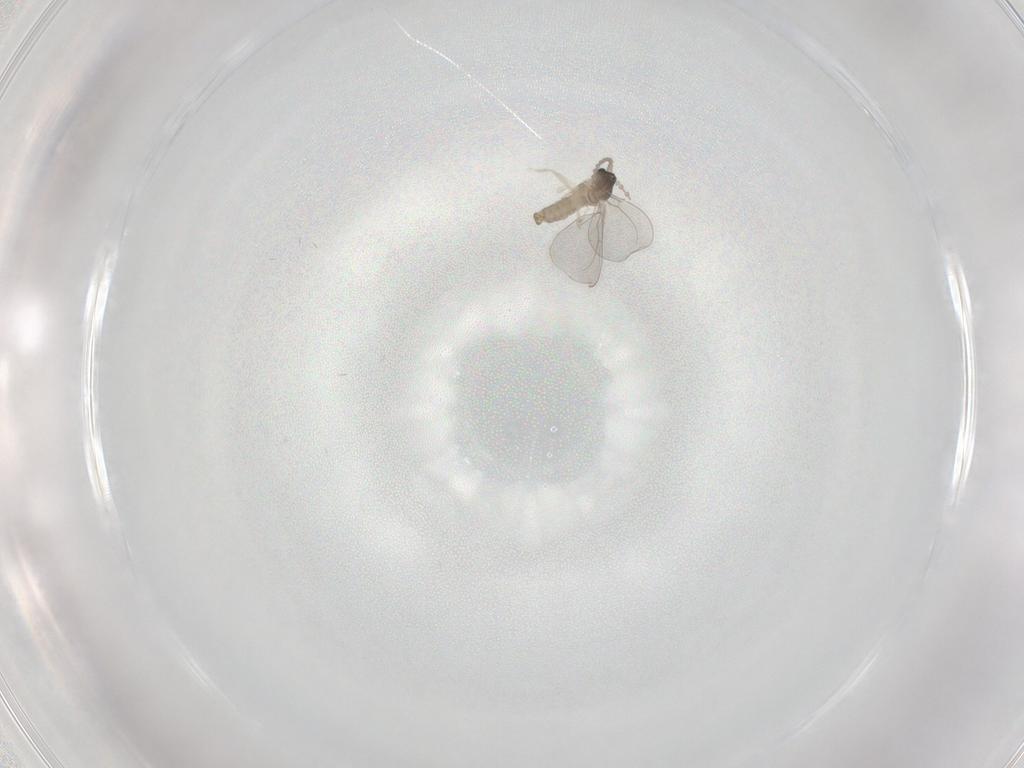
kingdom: Animalia
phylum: Arthropoda
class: Insecta
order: Diptera
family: Cecidomyiidae
